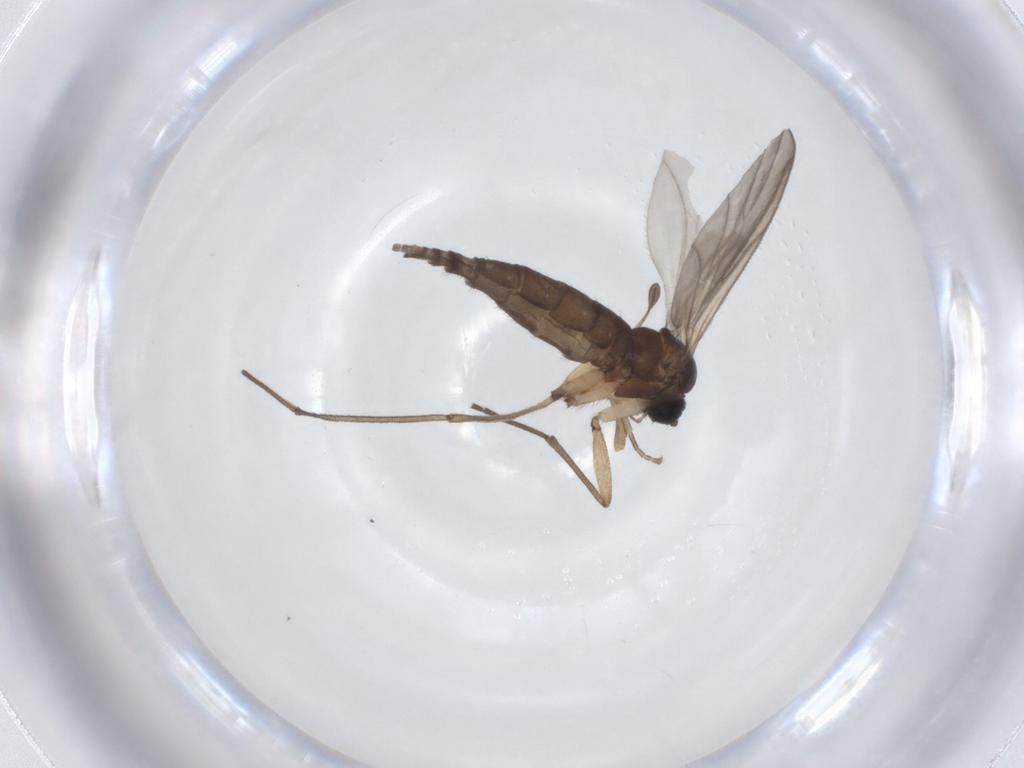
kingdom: Animalia
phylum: Arthropoda
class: Insecta
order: Diptera
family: Sciaridae
